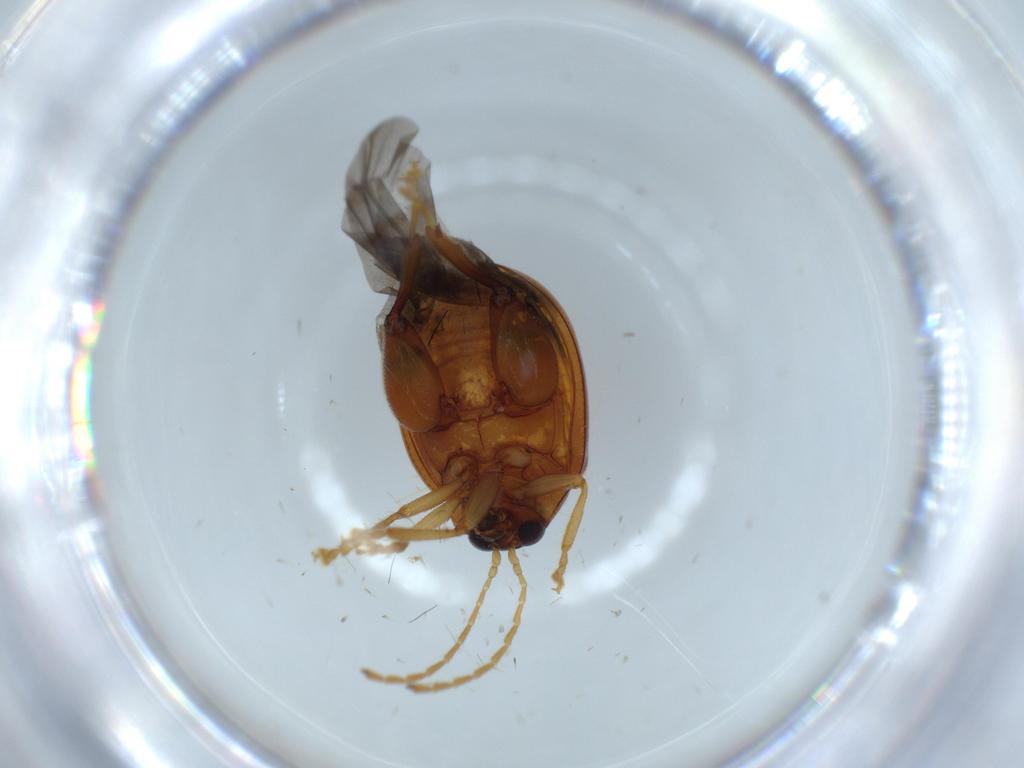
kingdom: Animalia
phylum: Arthropoda
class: Insecta
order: Coleoptera
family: Chrysomelidae
